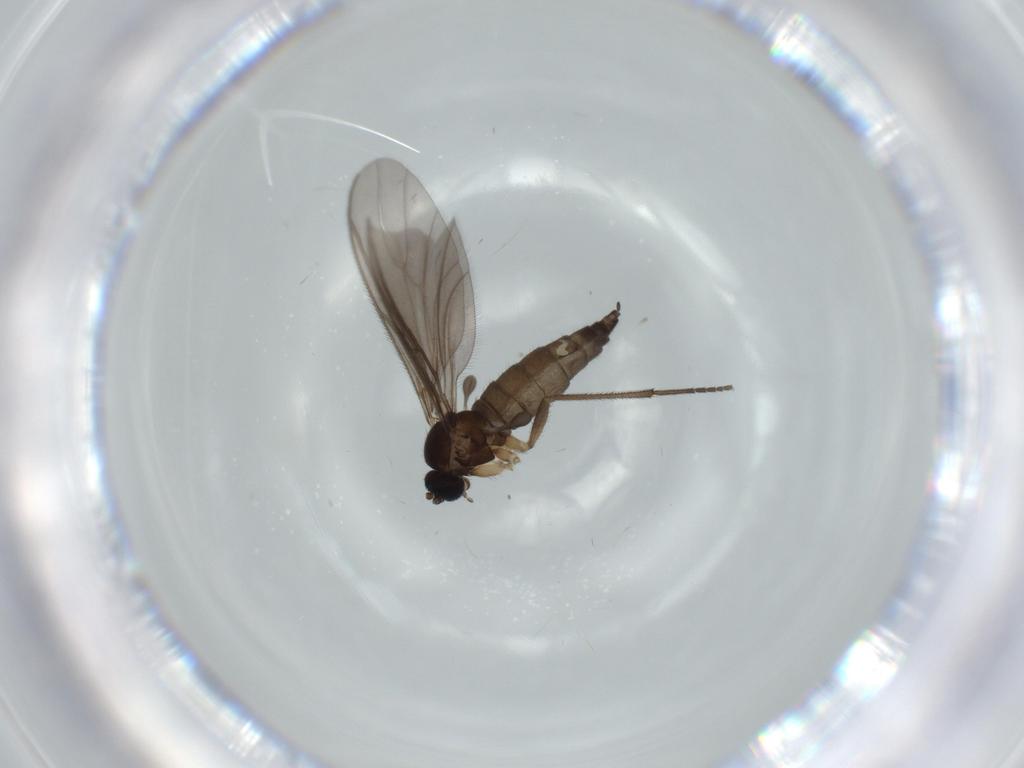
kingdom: Animalia
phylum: Arthropoda
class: Insecta
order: Diptera
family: Sciaridae
